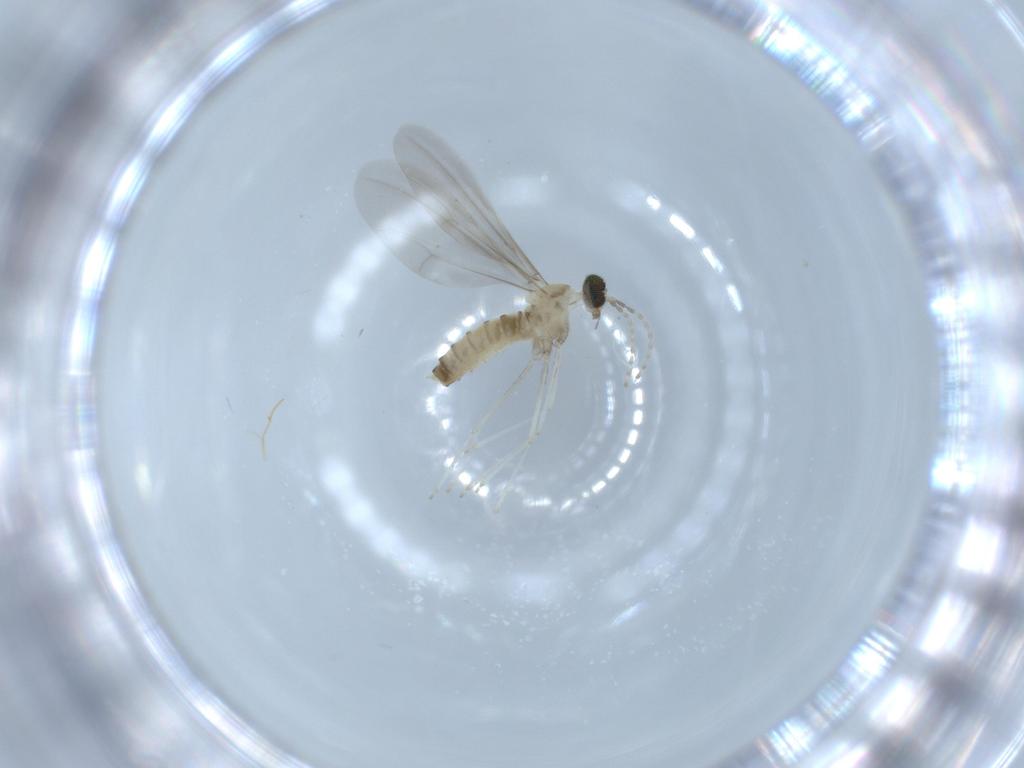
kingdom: Animalia
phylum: Arthropoda
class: Insecta
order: Diptera
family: Cecidomyiidae
